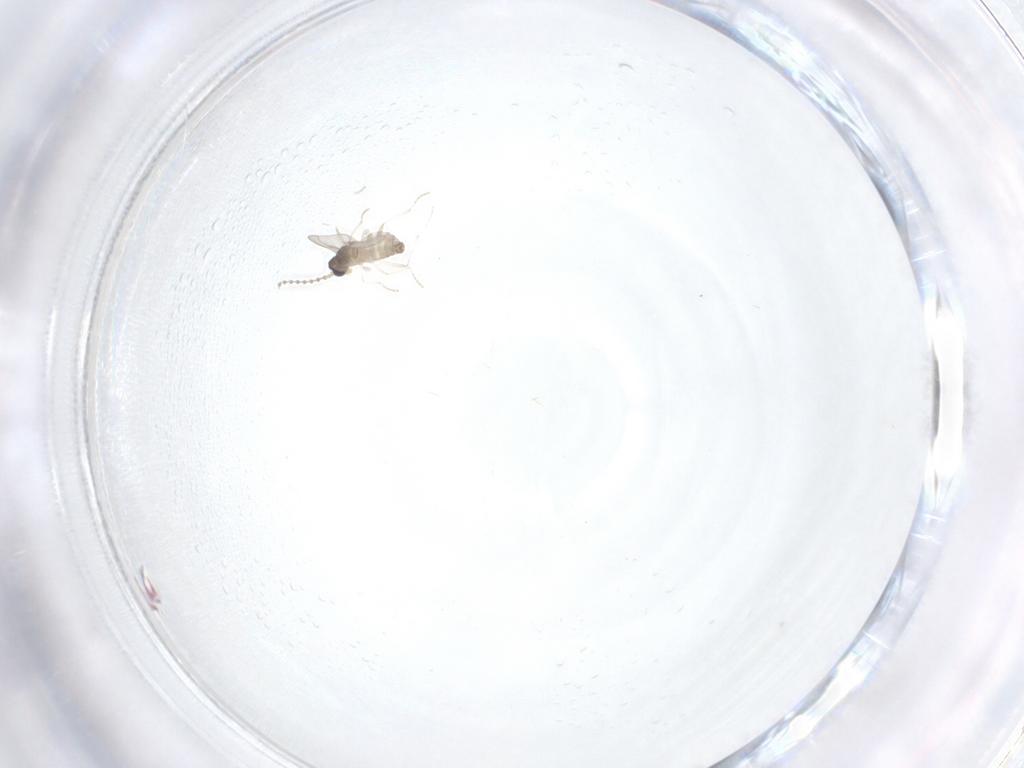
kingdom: Animalia
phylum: Arthropoda
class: Insecta
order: Diptera
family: Cecidomyiidae
